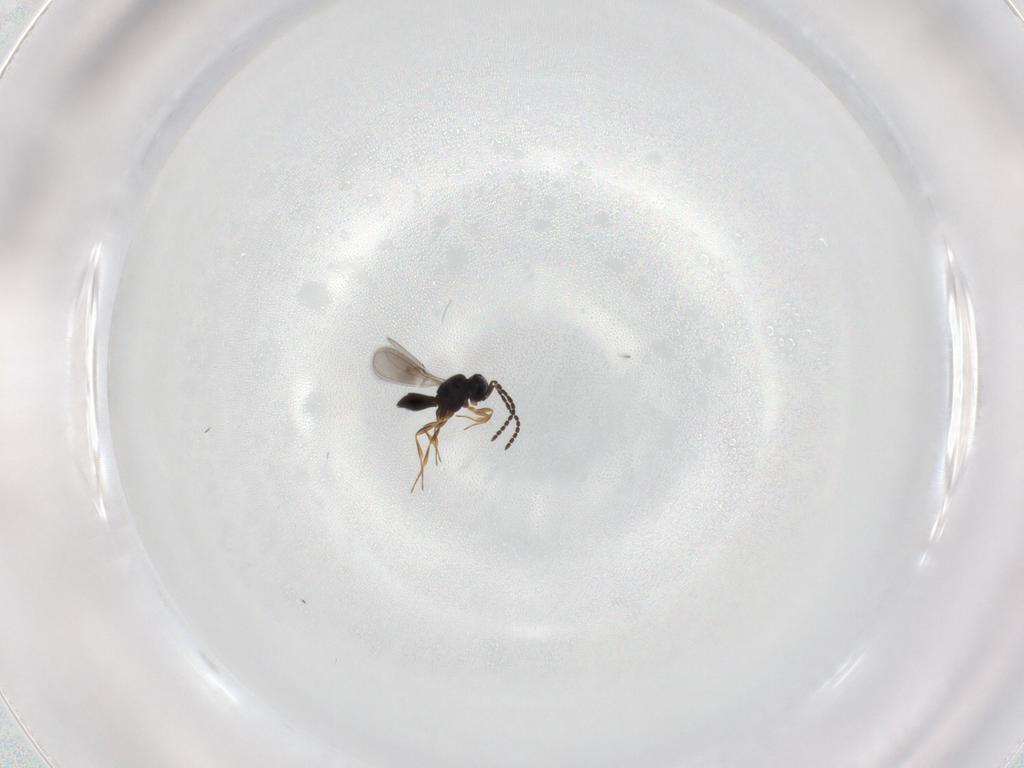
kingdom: Animalia
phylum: Arthropoda
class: Insecta
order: Hymenoptera
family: Scelionidae
